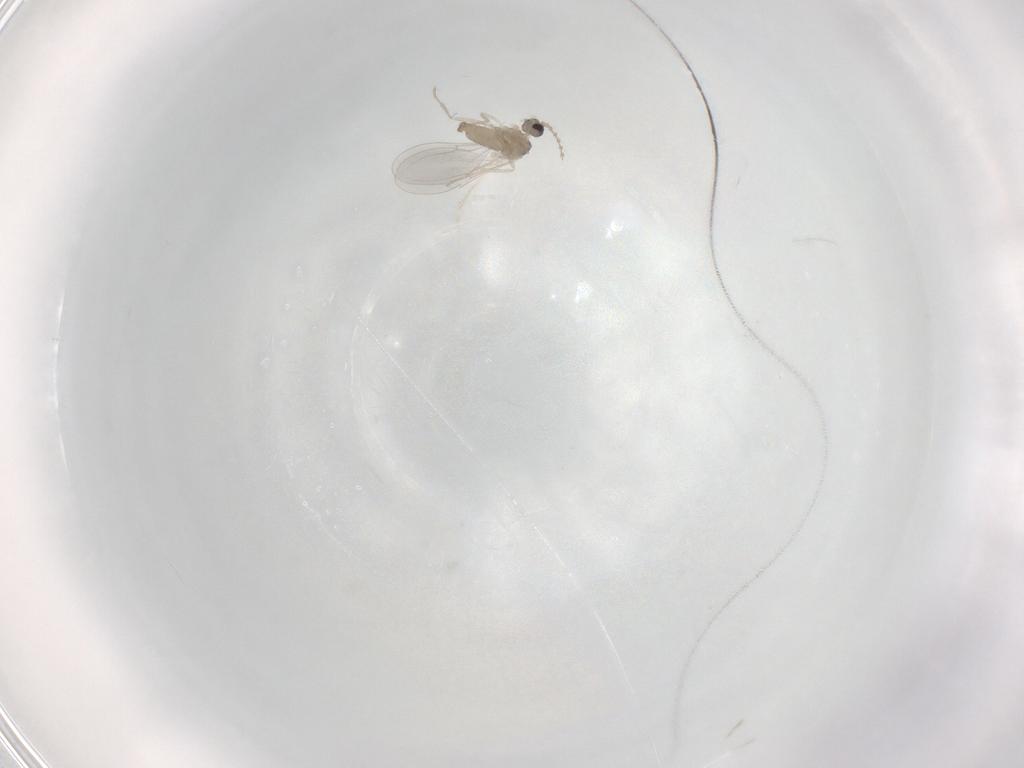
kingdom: Animalia
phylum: Arthropoda
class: Insecta
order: Diptera
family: Cecidomyiidae
